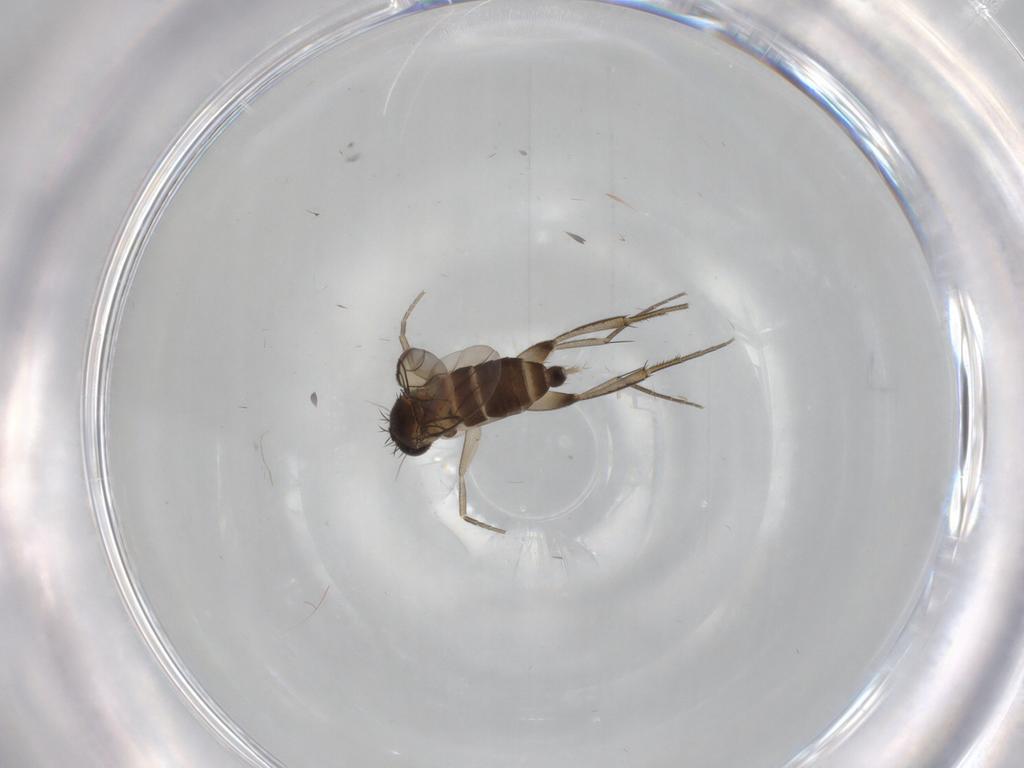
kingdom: Animalia
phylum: Arthropoda
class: Insecta
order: Diptera
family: Phoridae
